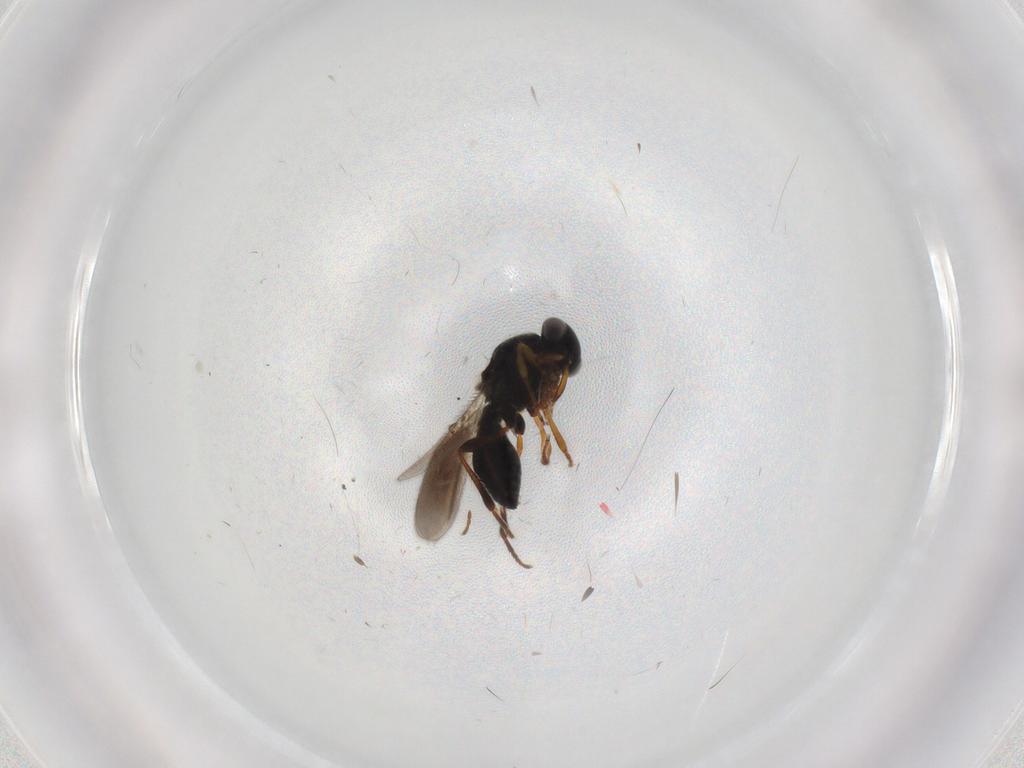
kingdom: Animalia
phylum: Arthropoda
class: Insecta
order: Hymenoptera
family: Platygastridae
